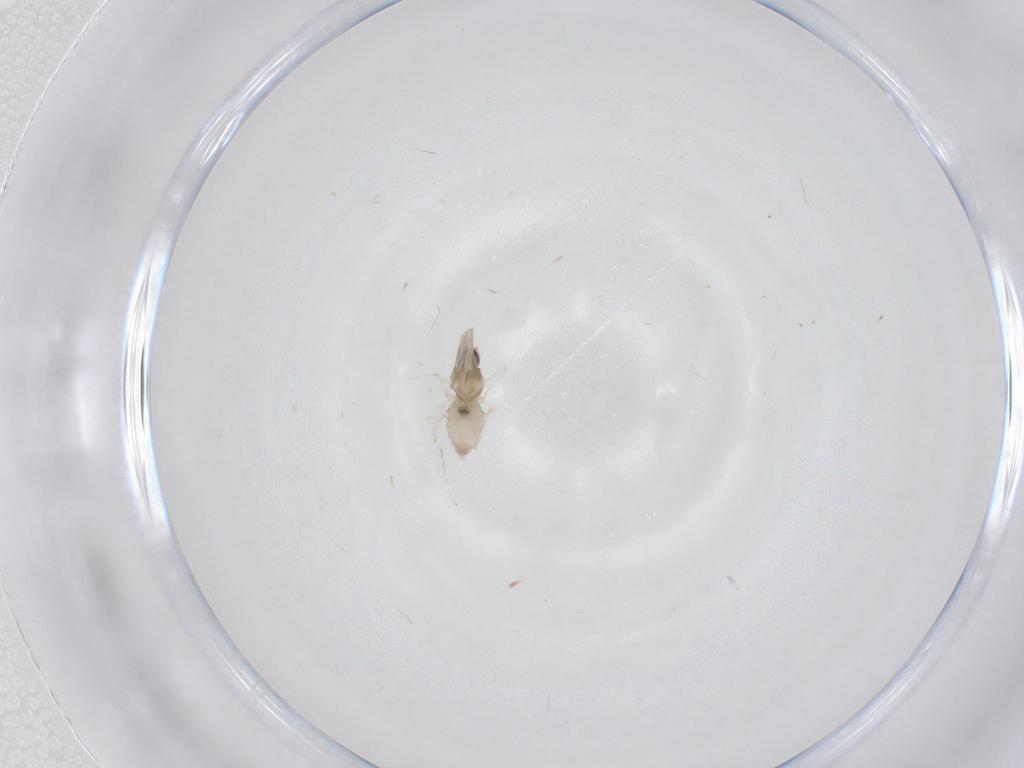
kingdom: Animalia
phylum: Arthropoda
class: Insecta
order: Diptera
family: Cecidomyiidae
